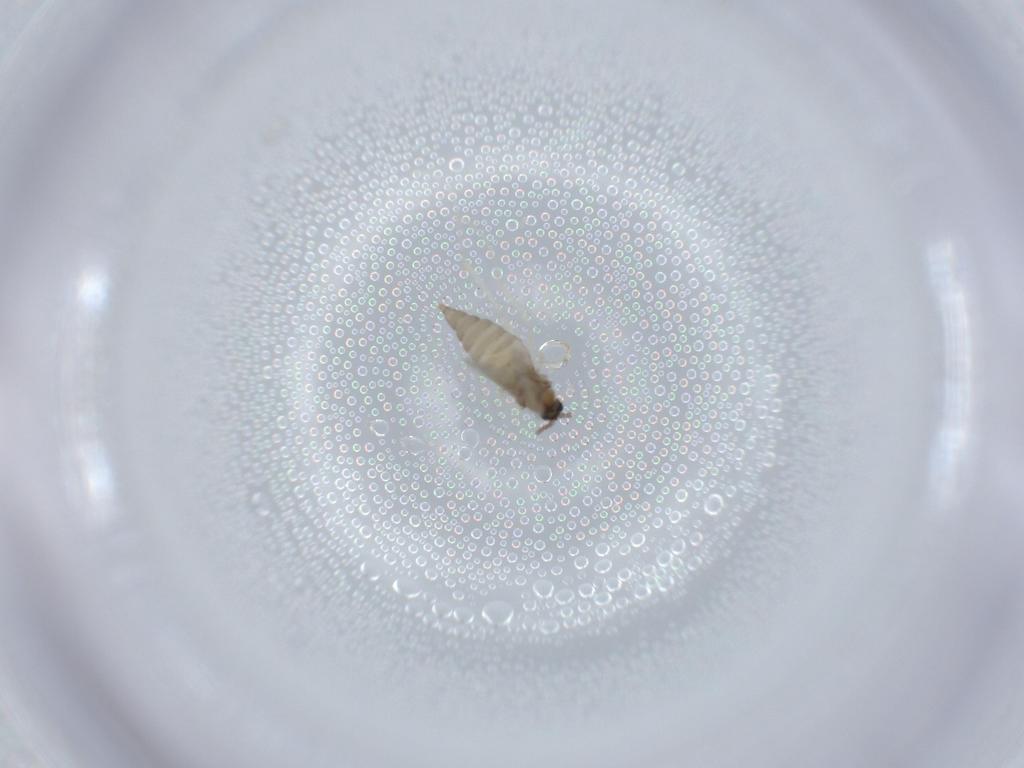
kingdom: Animalia
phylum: Arthropoda
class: Insecta
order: Diptera
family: Cecidomyiidae
